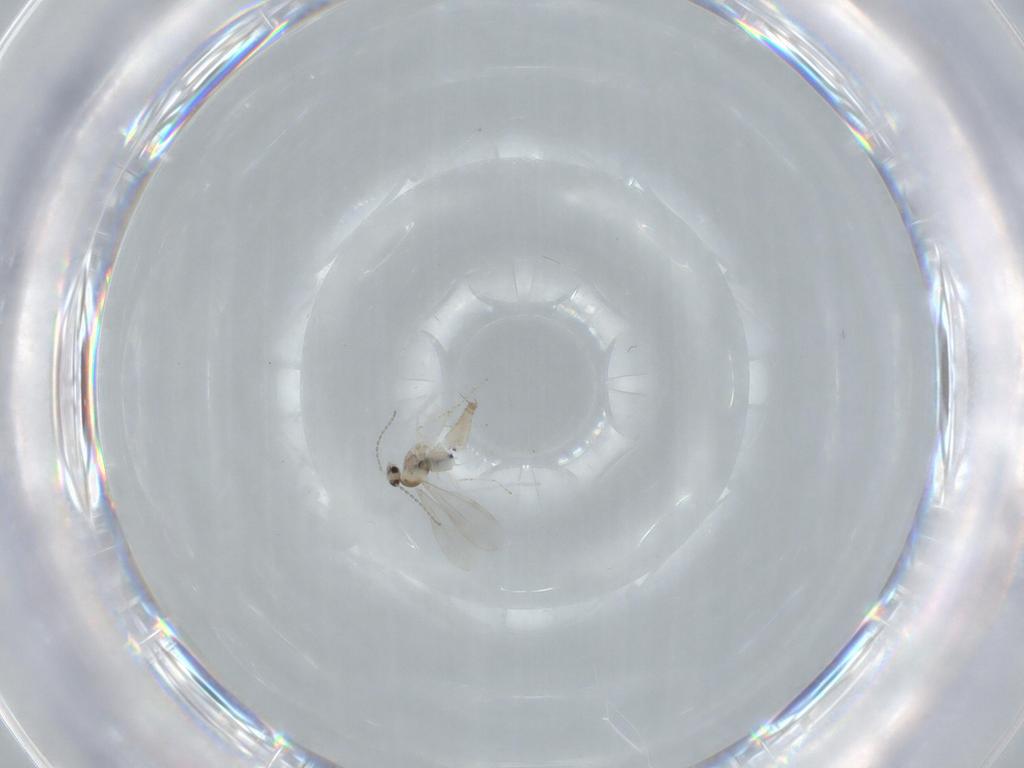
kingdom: Animalia
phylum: Arthropoda
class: Insecta
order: Diptera
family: Cecidomyiidae
